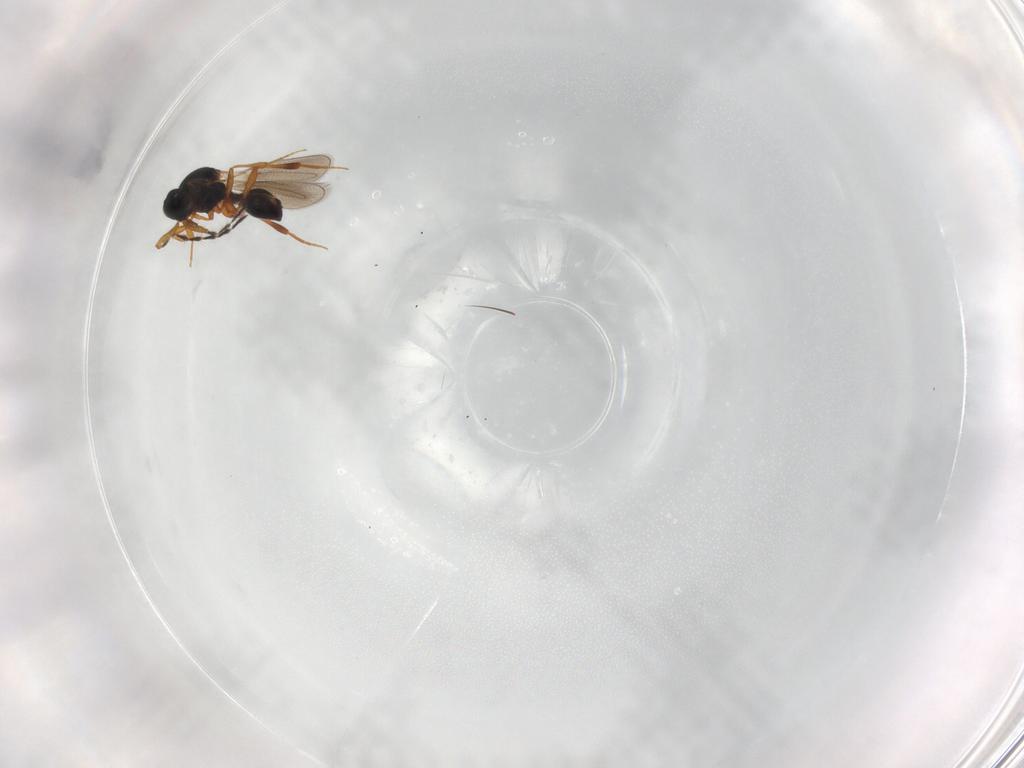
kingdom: Animalia
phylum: Arthropoda
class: Insecta
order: Hymenoptera
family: Platygastridae
